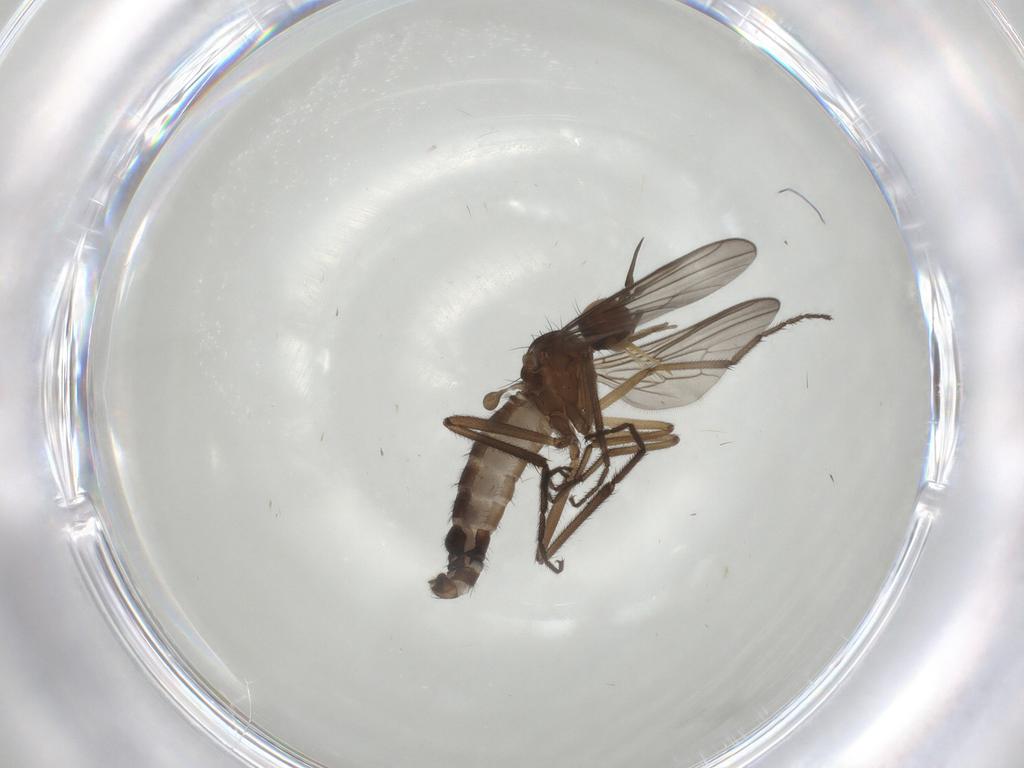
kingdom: Animalia
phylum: Arthropoda
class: Insecta
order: Diptera
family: Empididae
